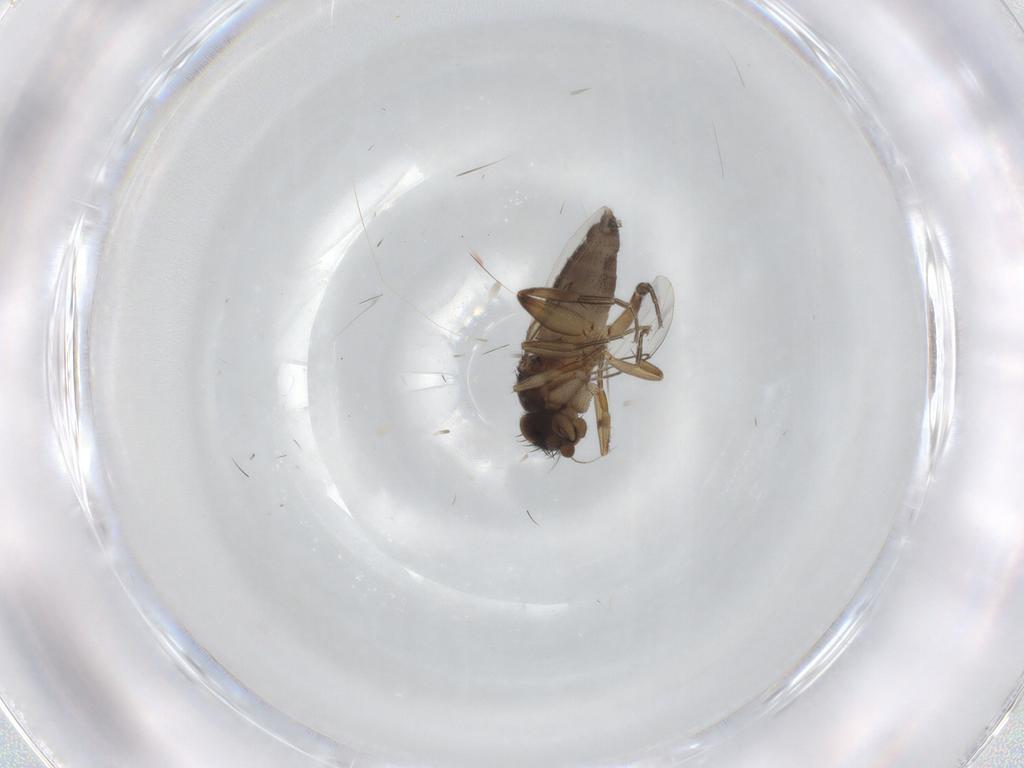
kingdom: Animalia
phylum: Arthropoda
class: Insecta
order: Diptera
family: Phoridae
